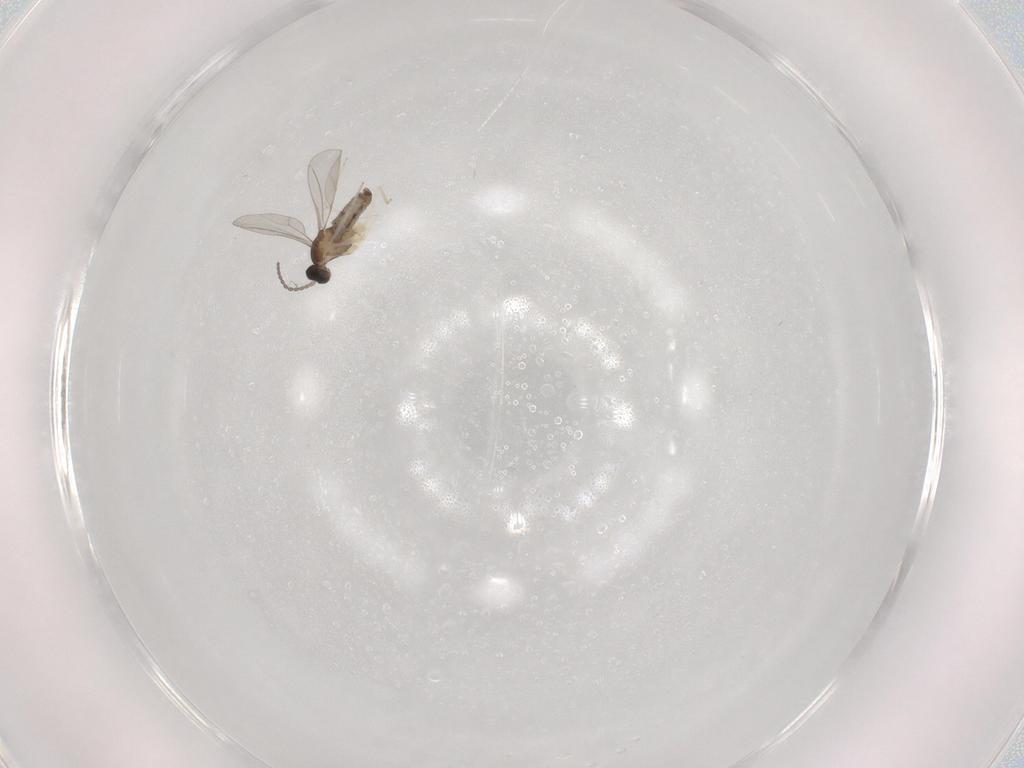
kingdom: Animalia
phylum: Arthropoda
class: Insecta
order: Diptera
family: Cecidomyiidae
